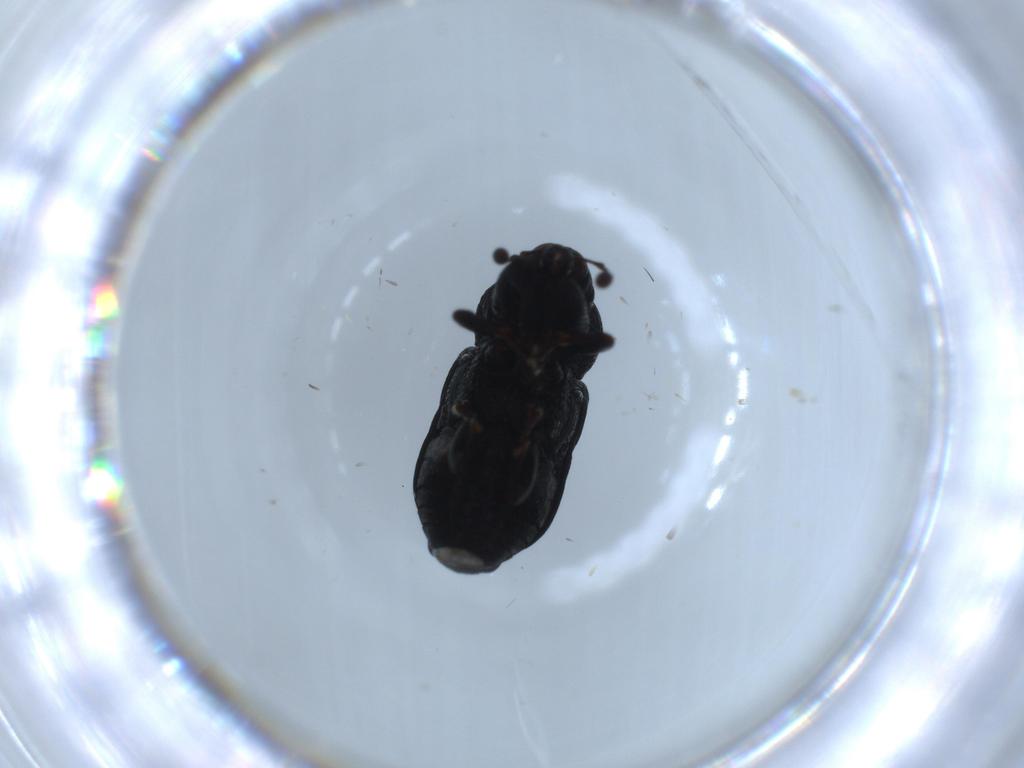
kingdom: Animalia
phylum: Arthropoda
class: Insecta
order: Coleoptera
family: Curculionidae
